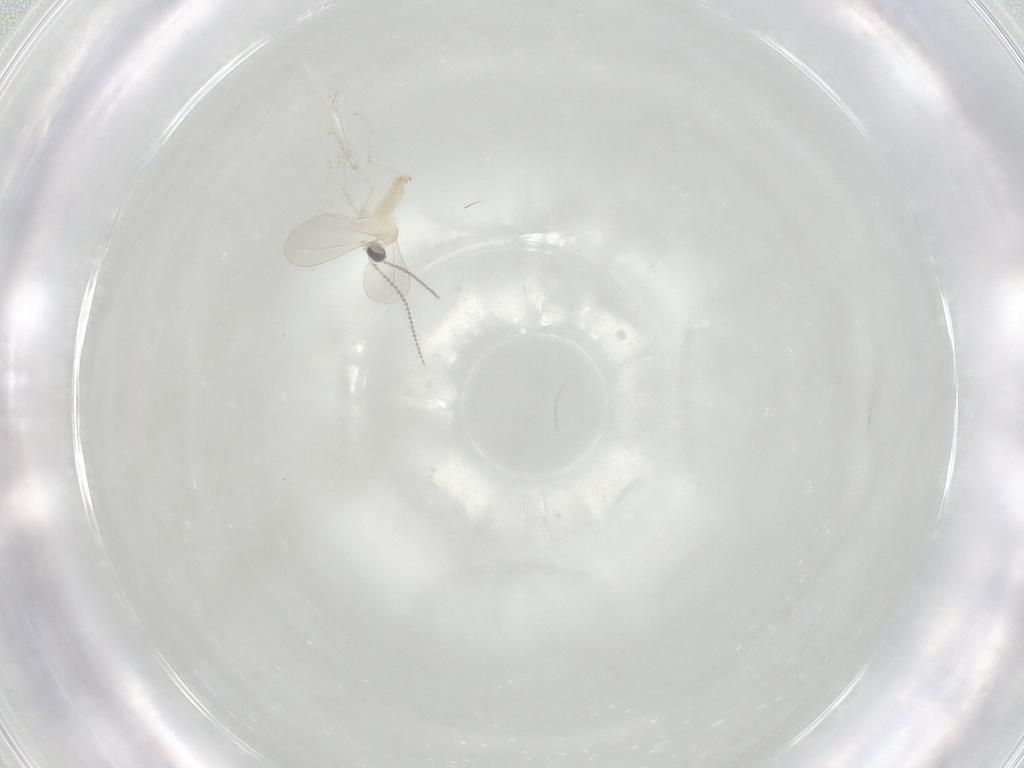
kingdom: Animalia
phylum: Arthropoda
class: Insecta
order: Diptera
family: Cecidomyiidae
